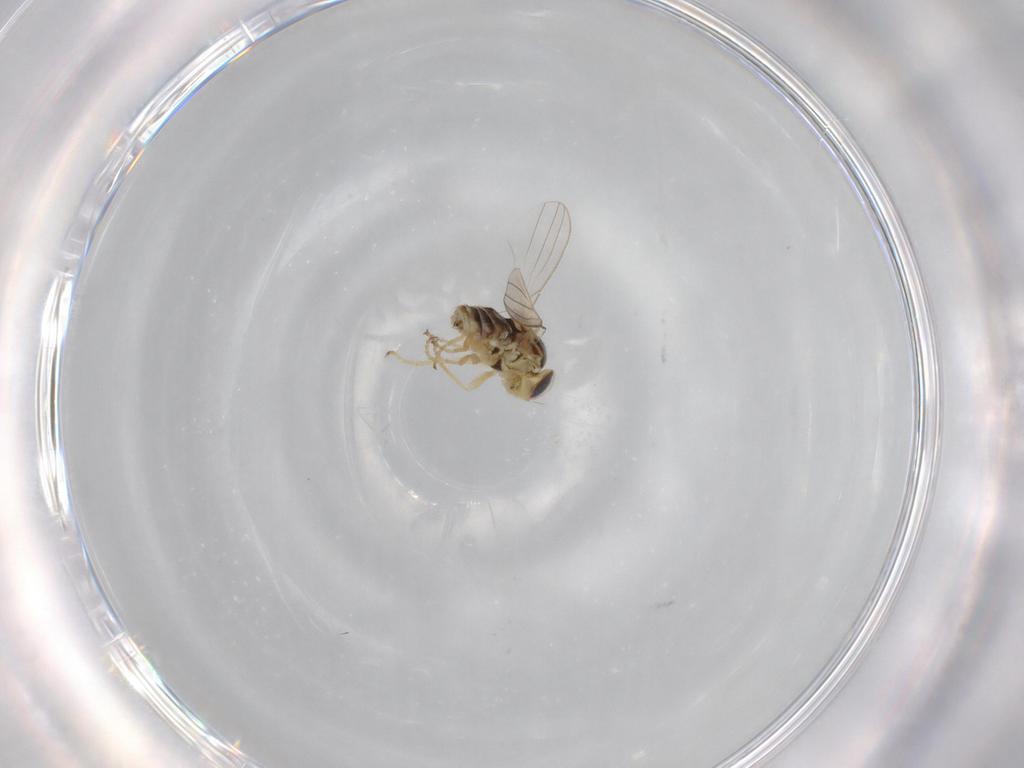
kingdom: Animalia
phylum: Arthropoda
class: Insecta
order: Diptera
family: Chyromyidae
